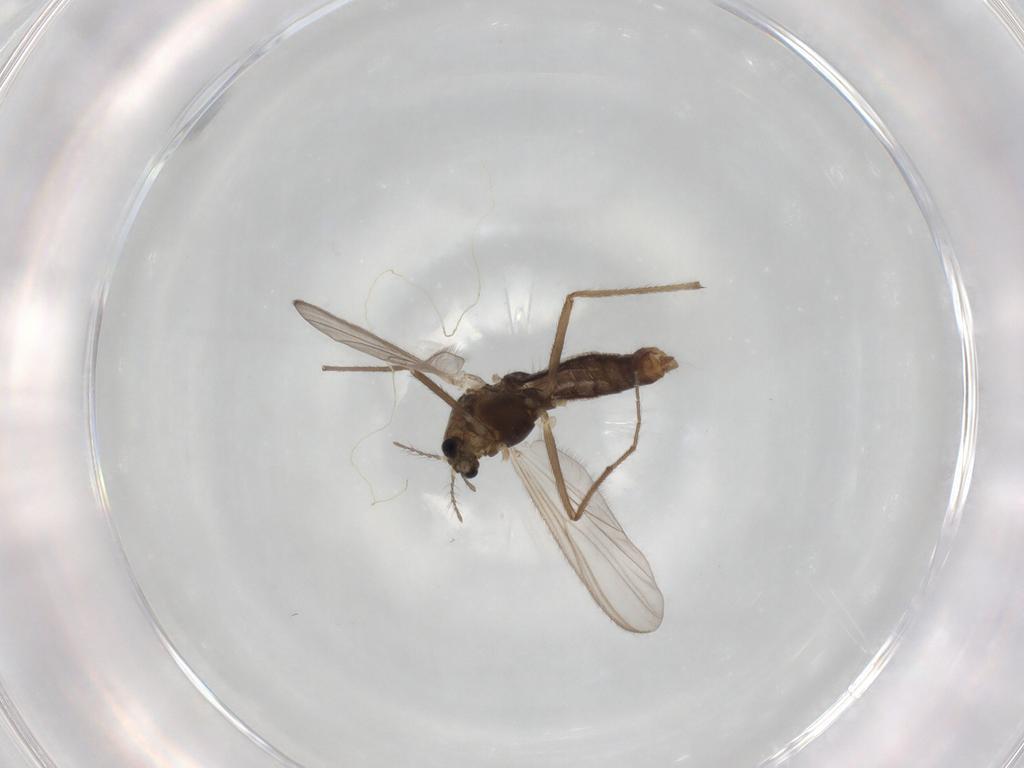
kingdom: Animalia
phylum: Arthropoda
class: Insecta
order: Diptera
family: Chironomidae
